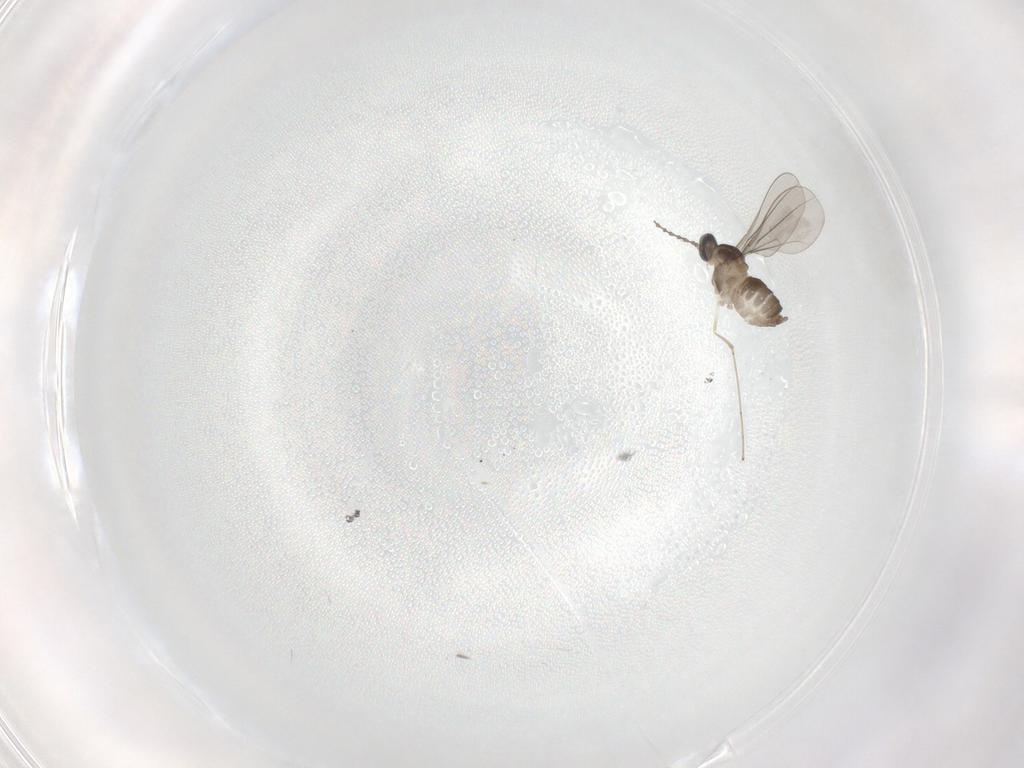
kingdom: Animalia
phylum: Arthropoda
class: Insecta
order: Diptera
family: Cecidomyiidae
